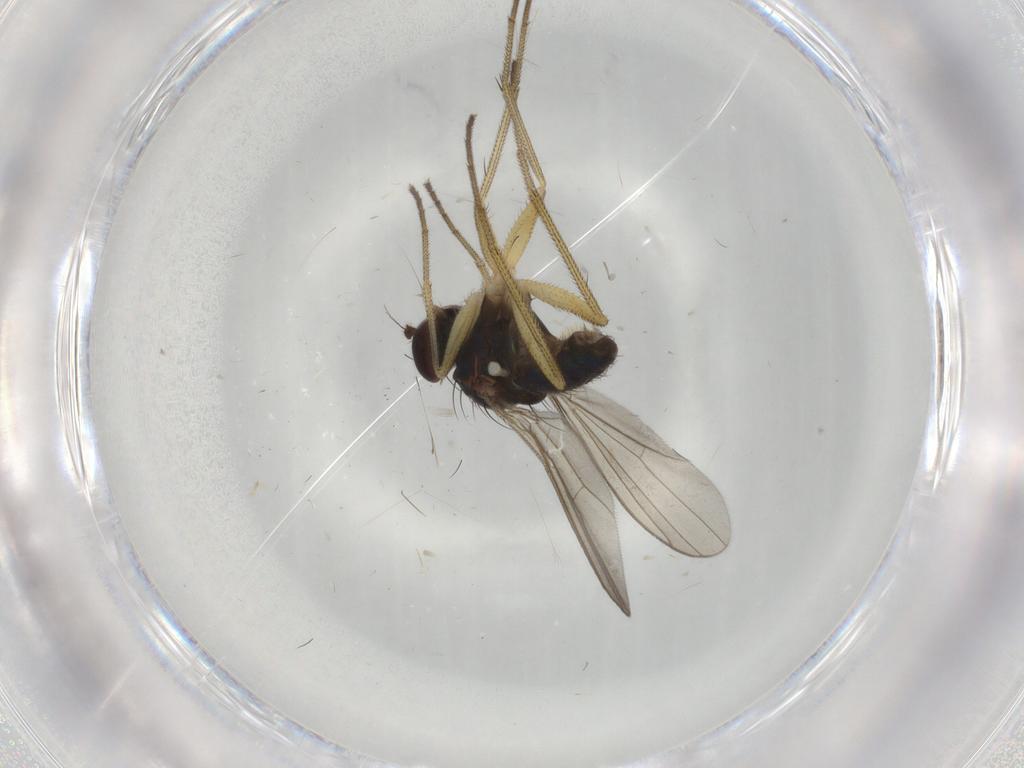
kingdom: Animalia
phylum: Arthropoda
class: Insecta
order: Diptera
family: Dolichopodidae
